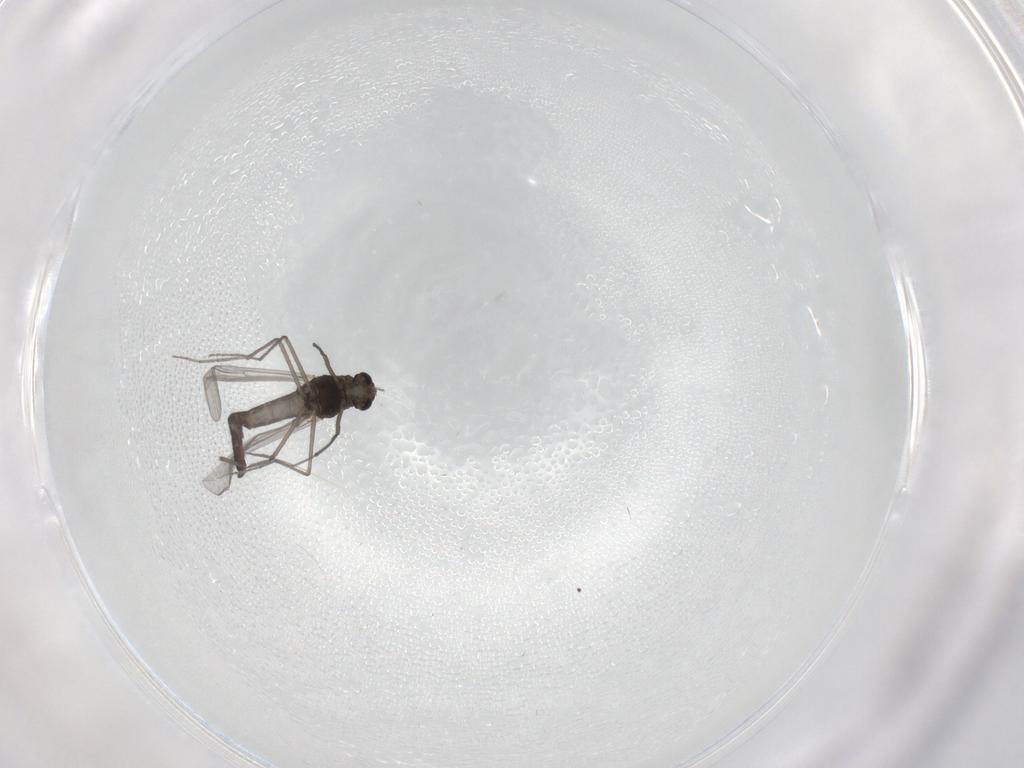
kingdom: Animalia
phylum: Arthropoda
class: Insecta
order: Diptera
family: Chironomidae
